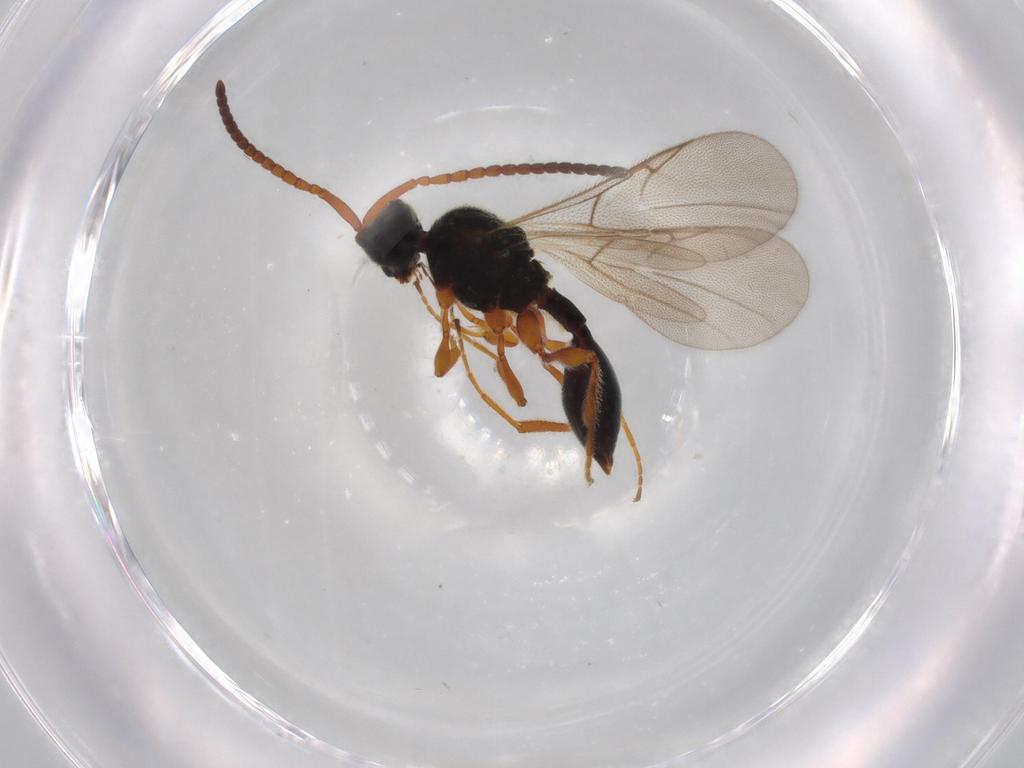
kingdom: Animalia
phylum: Arthropoda
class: Insecta
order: Hymenoptera
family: Diapriidae
